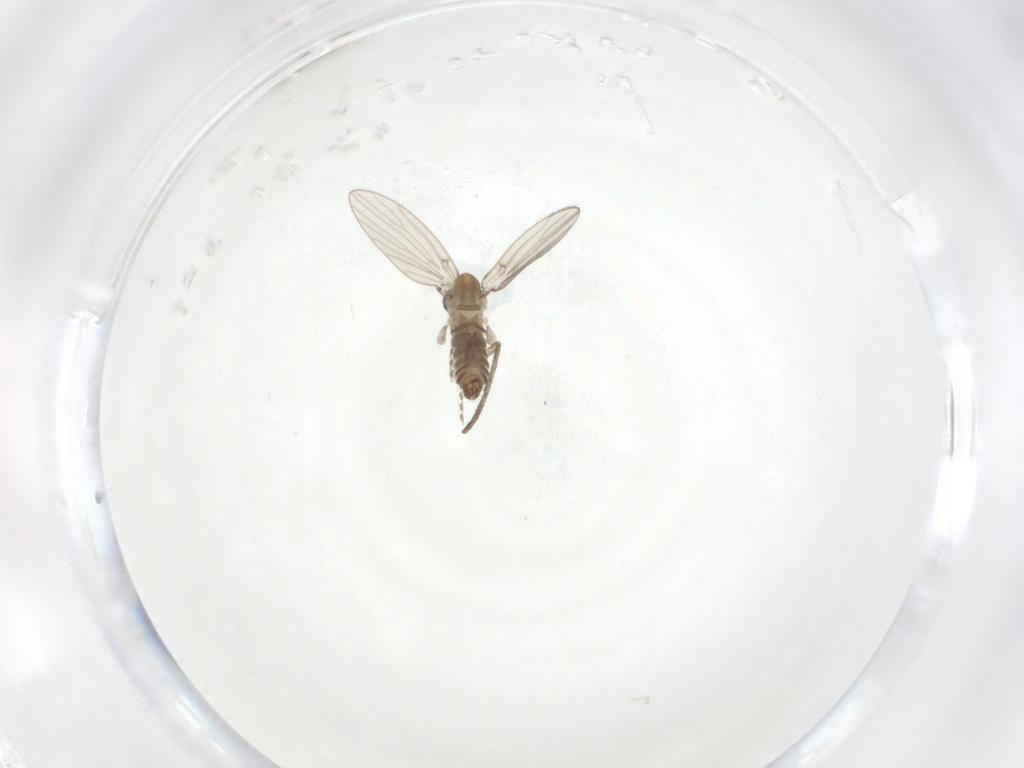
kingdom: Animalia
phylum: Arthropoda
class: Insecta
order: Diptera
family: Psychodidae
